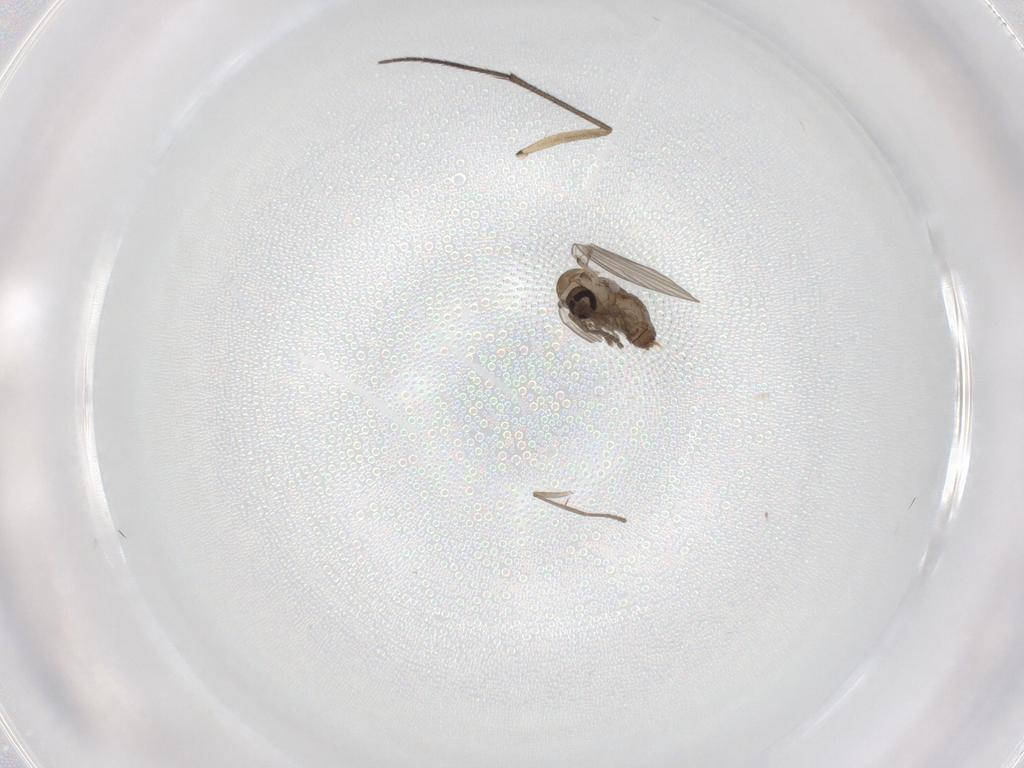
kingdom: Animalia
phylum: Arthropoda
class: Insecta
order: Diptera
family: Psychodidae
